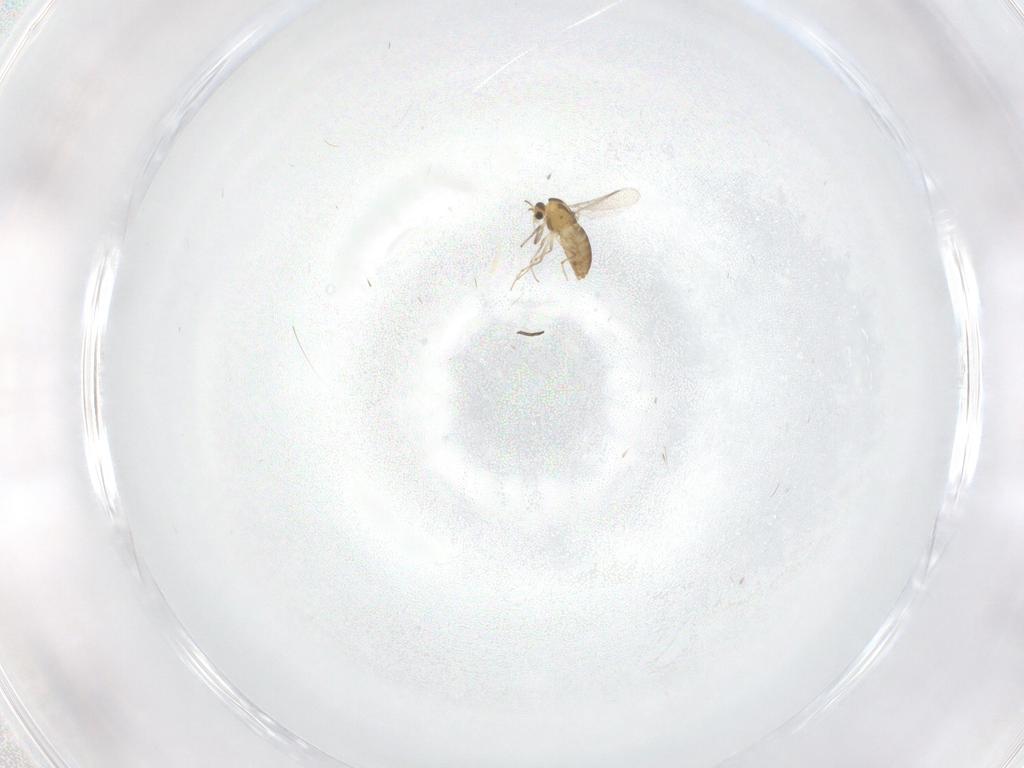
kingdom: Animalia
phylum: Arthropoda
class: Insecta
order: Diptera
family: Chironomidae
